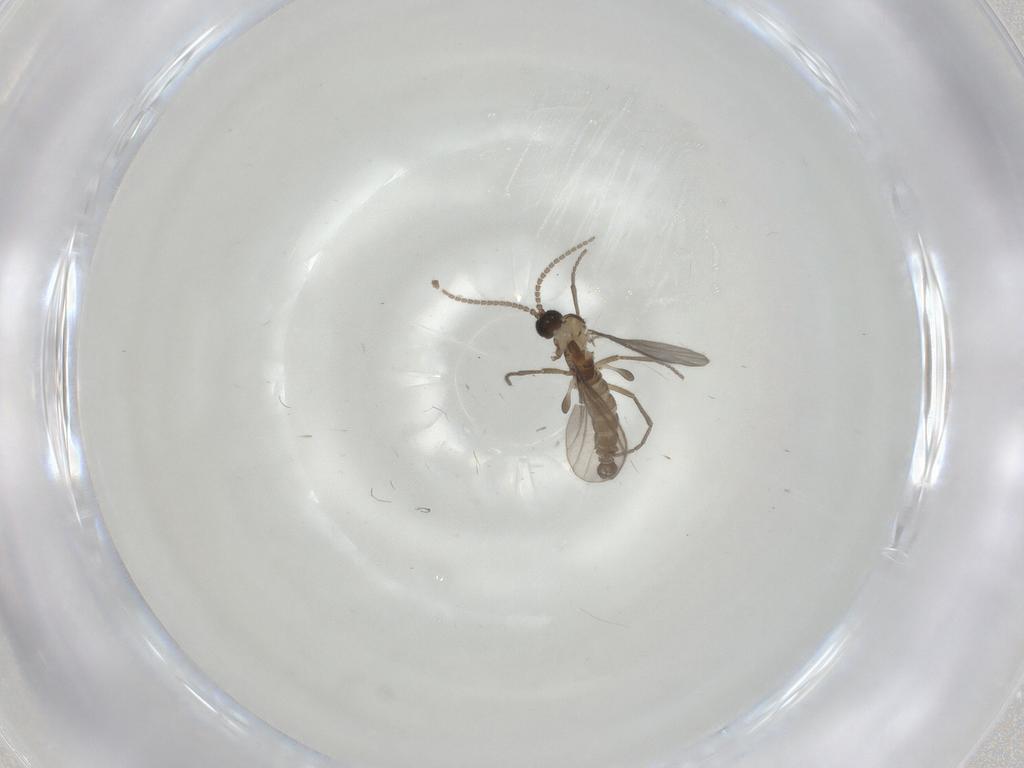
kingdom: Animalia
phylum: Arthropoda
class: Insecta
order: Diptera
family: Sciaridae
